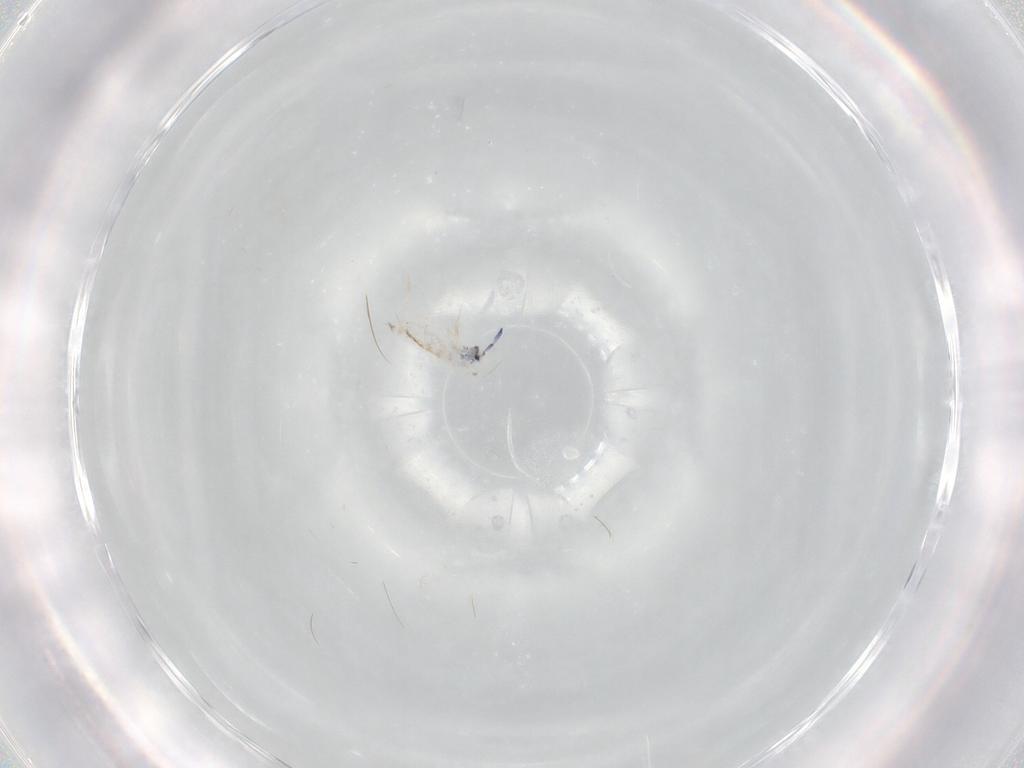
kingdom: Animalia
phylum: Arthropoda
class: Collembola
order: Entomobryomorpha
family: Entomobryidae
